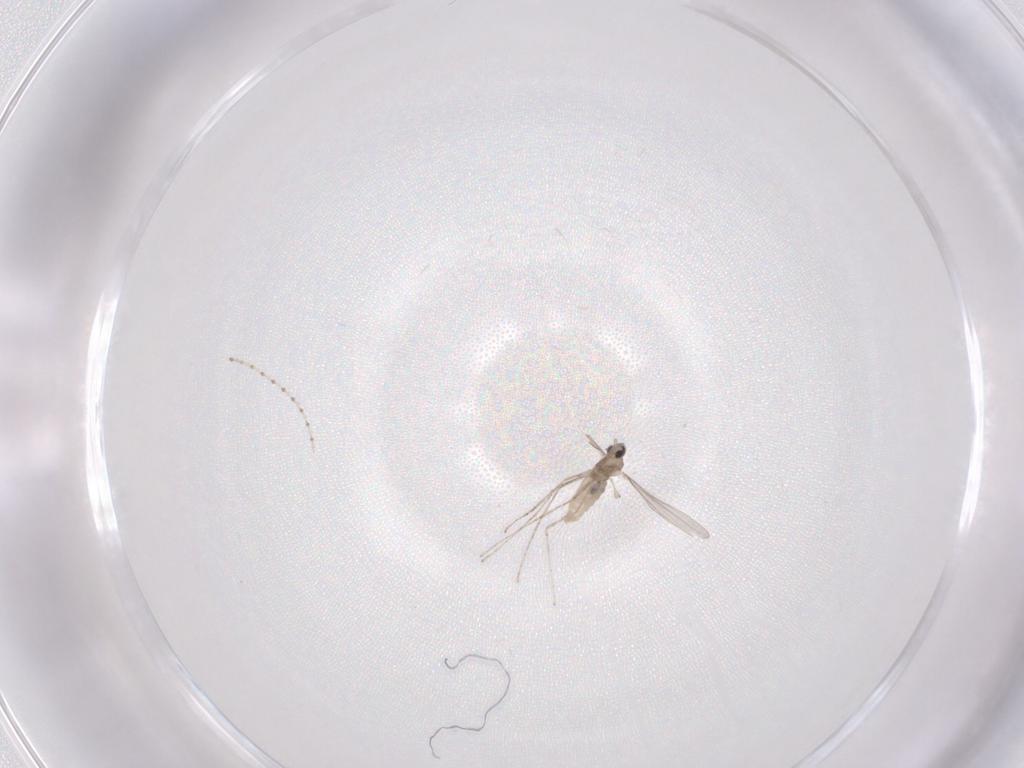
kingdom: Animalia
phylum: Arthropoda
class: Insecta
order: Diptera
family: Cecidomyiidae
